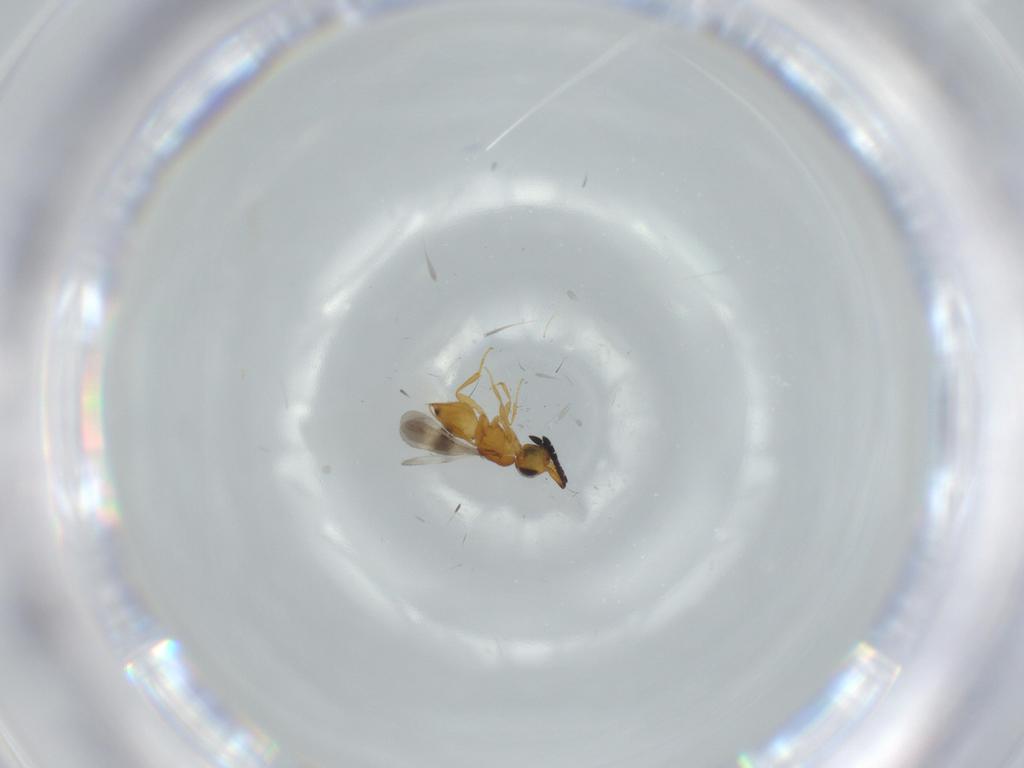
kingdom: Animalia
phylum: Arthropoda
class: Insecta
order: Hymenoptera
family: Ceraphronidae
